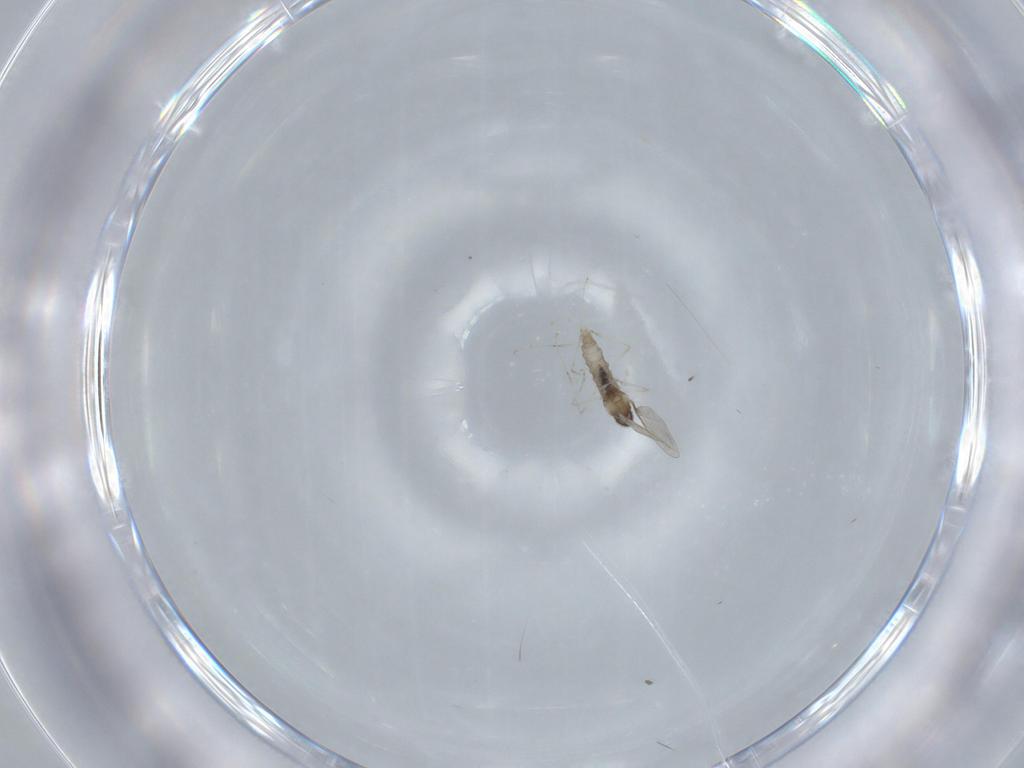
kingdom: Animalia
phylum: Arthropoda
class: Insecta
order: Diptera
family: Cecidomyiidae
